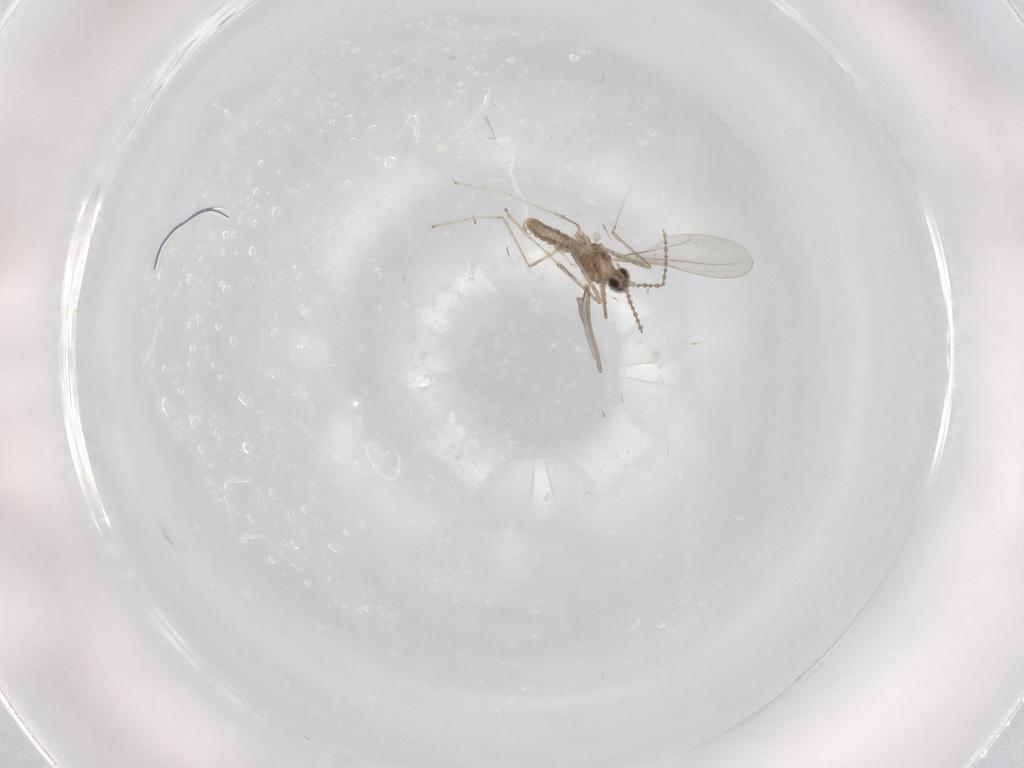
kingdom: Animalia
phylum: Arthropoda
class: Insecta
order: Diptera
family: Cecidomyiidae
